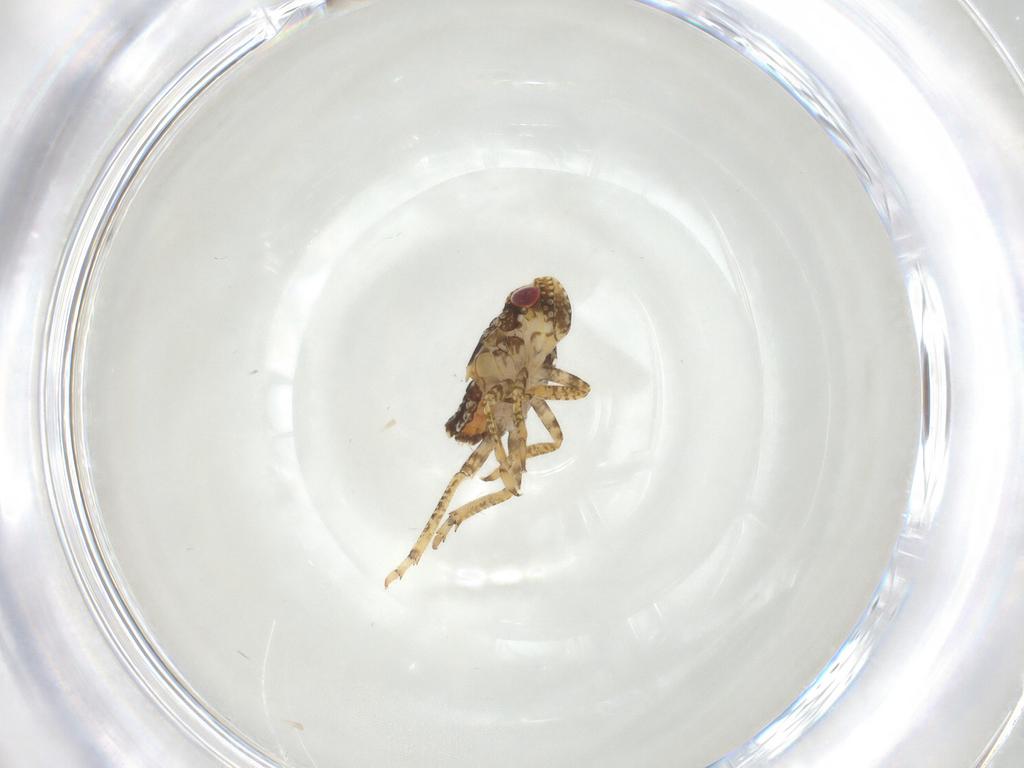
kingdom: Animalia
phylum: Arthropoda
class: Insecta
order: Hemiptera
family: Issidae
